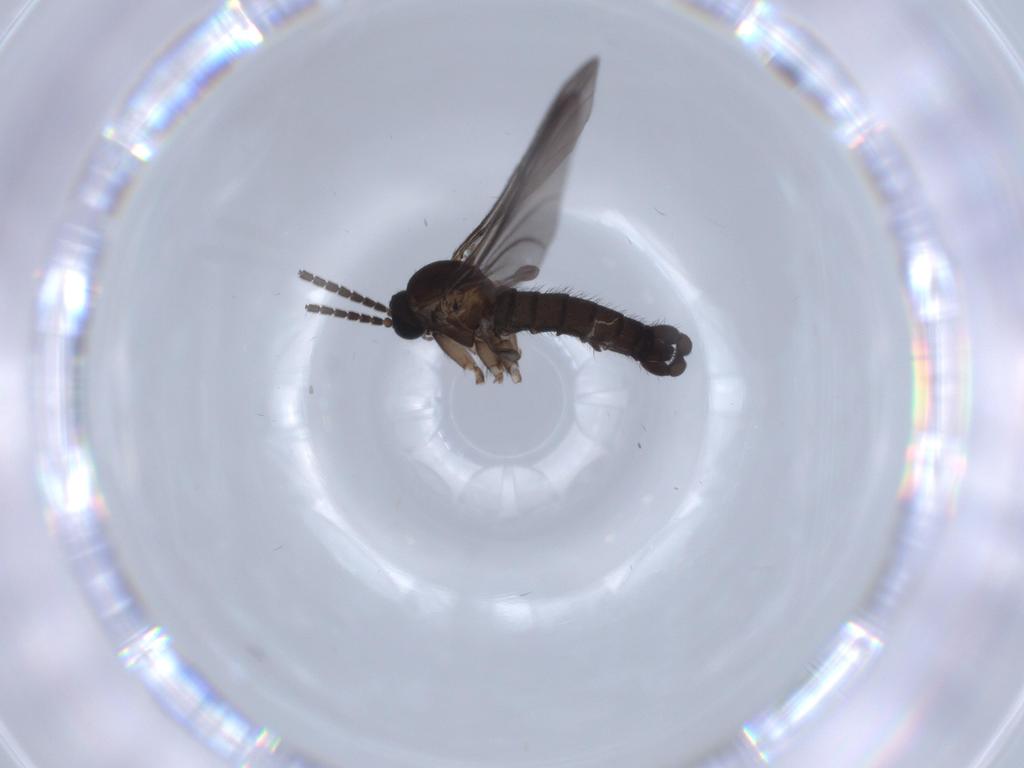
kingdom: Animalia
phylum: Arthropoda
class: Insecta
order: Diptera
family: Sciaridae
